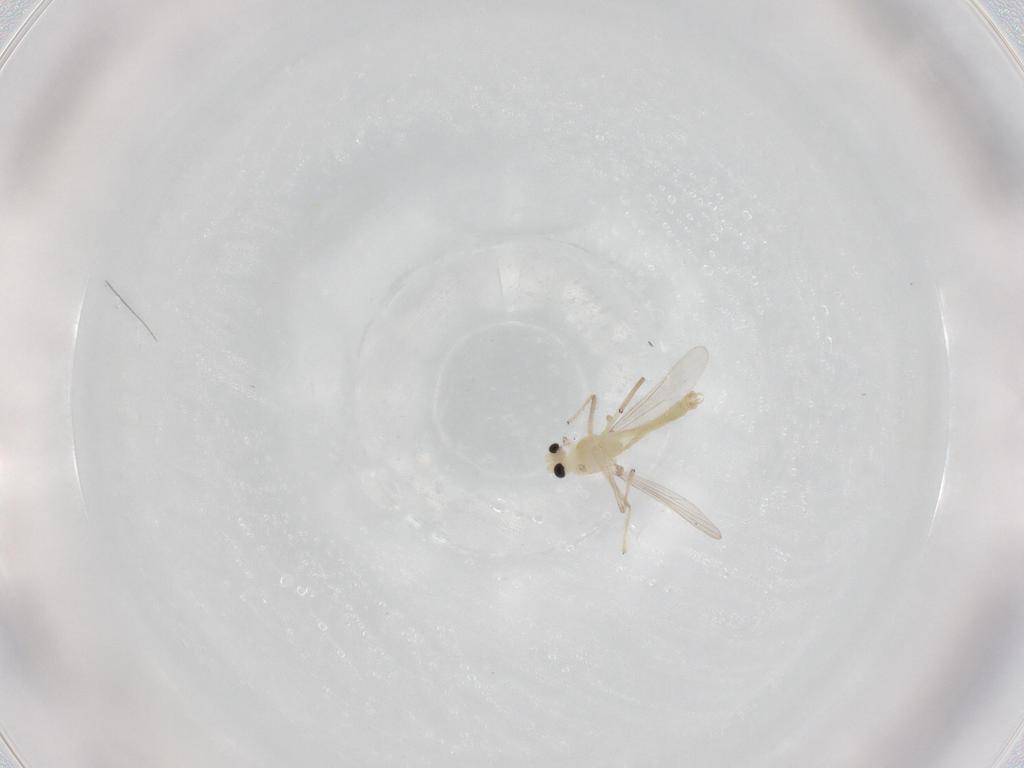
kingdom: Animalia
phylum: Arthropoda
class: Insecta
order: Diptera
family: Chironomidae
